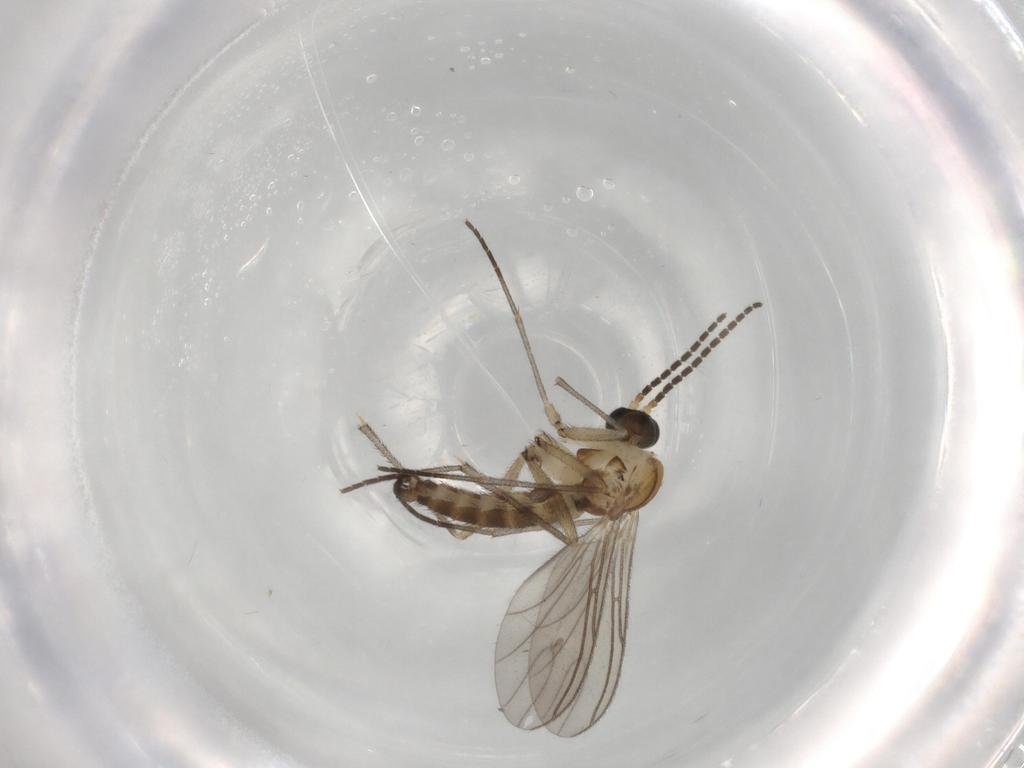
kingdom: Animalia
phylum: Arthropoda
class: Insecta
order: Diptera
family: Sciaridae
